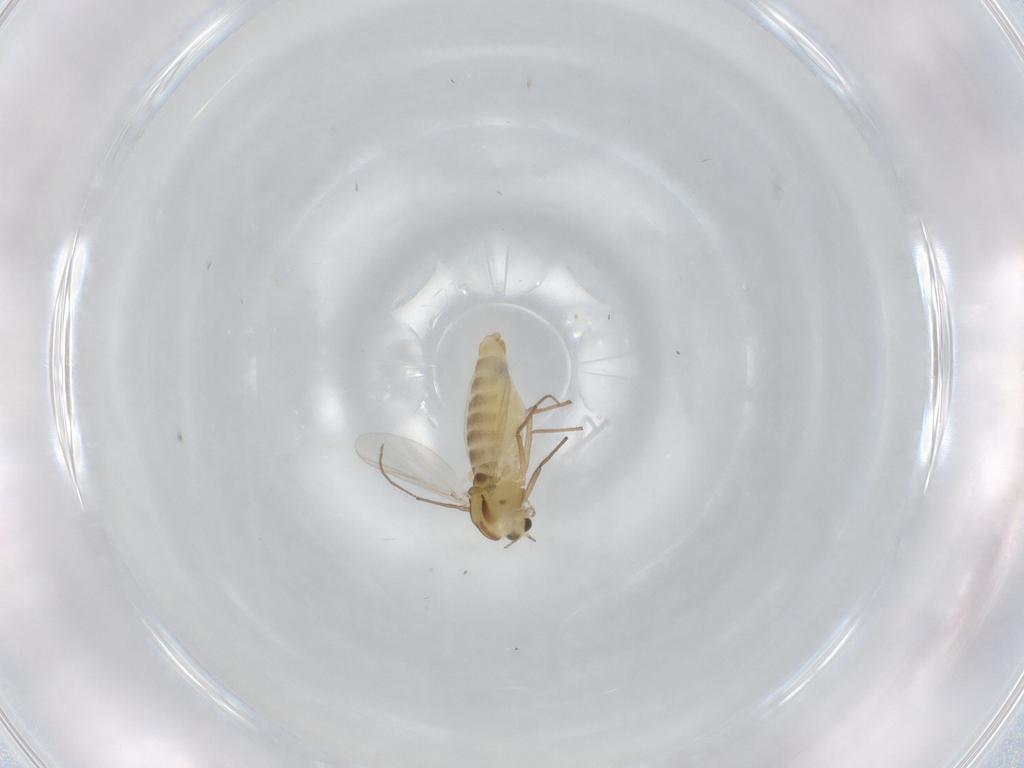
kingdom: Animalia
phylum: Arthropoda
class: Insecta
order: Diptera
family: Chironomidae
